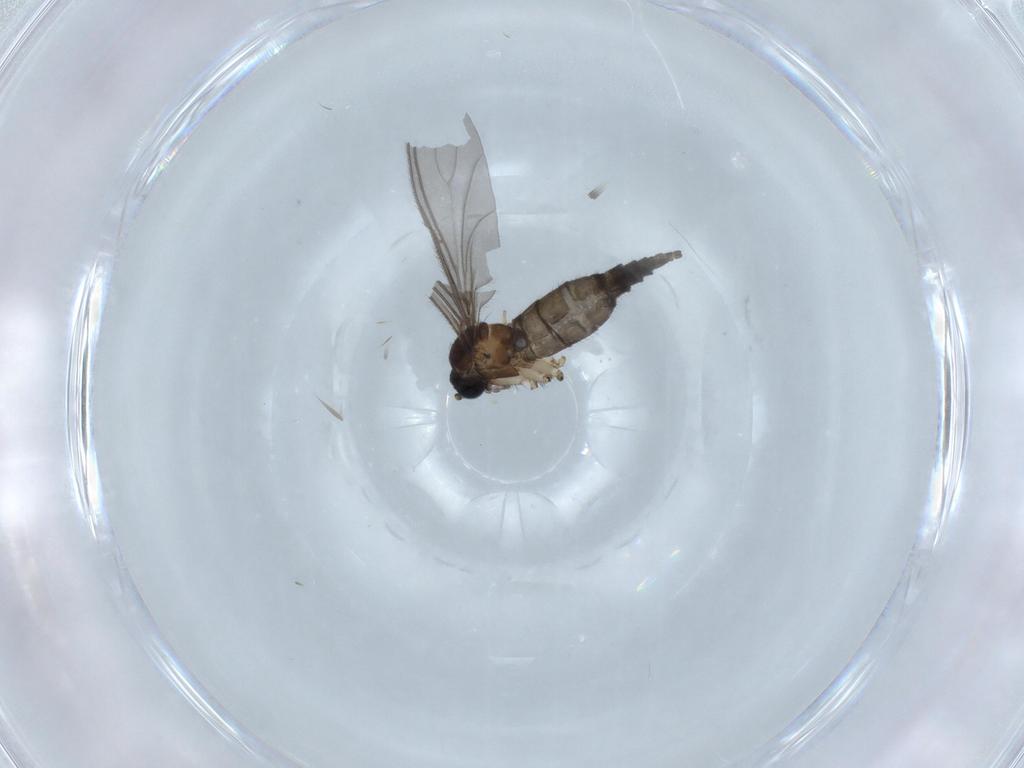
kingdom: Animalia
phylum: Arthropoda
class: Insecta
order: Diptera
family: Sciaridae
